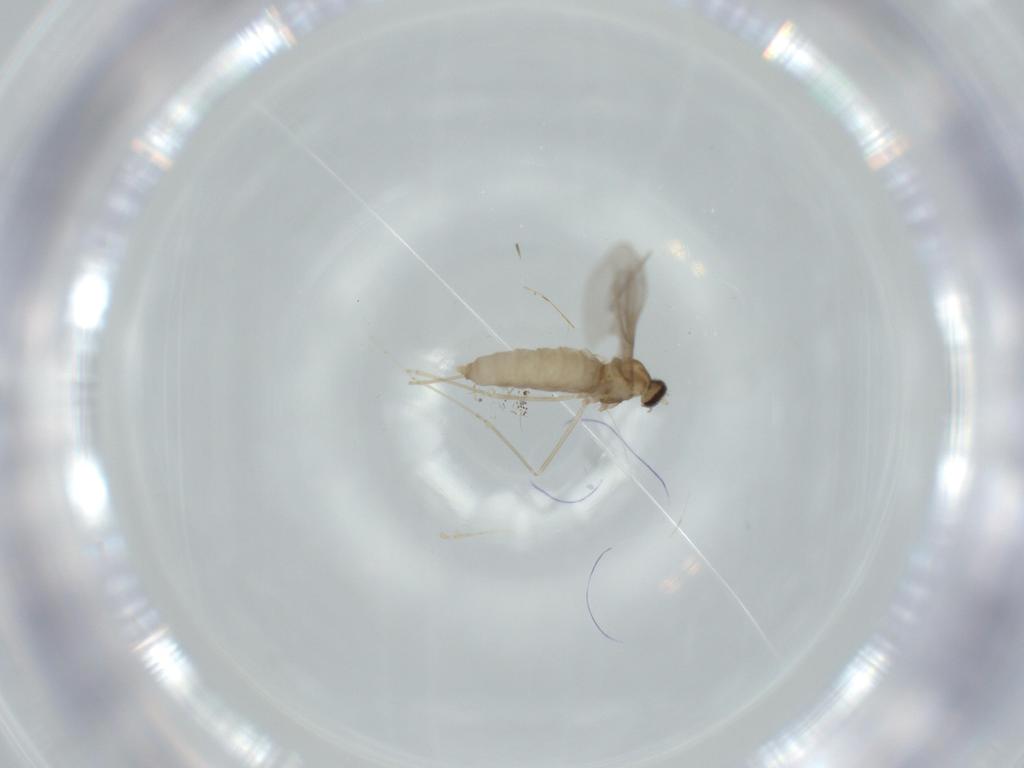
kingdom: Animalia
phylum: Arthropoda
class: Insecta
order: Diptera
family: Cecidomyiidae
